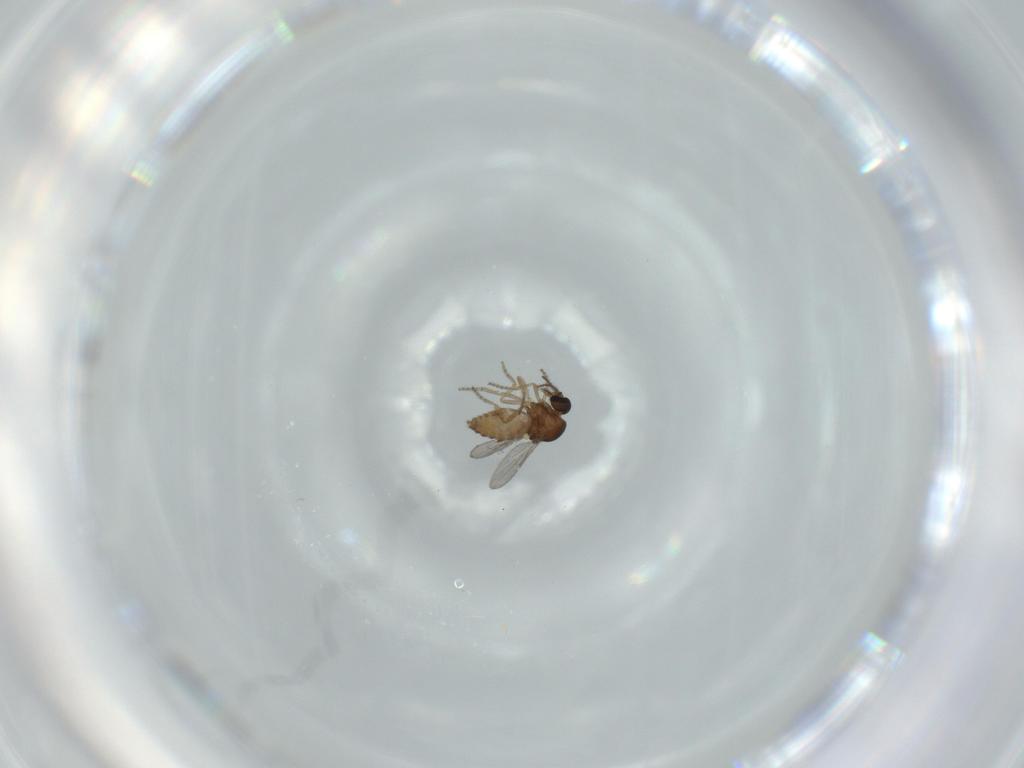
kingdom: Animalia
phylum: Arthropoda
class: Insecta
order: Diptera
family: Ceratopogonidae
